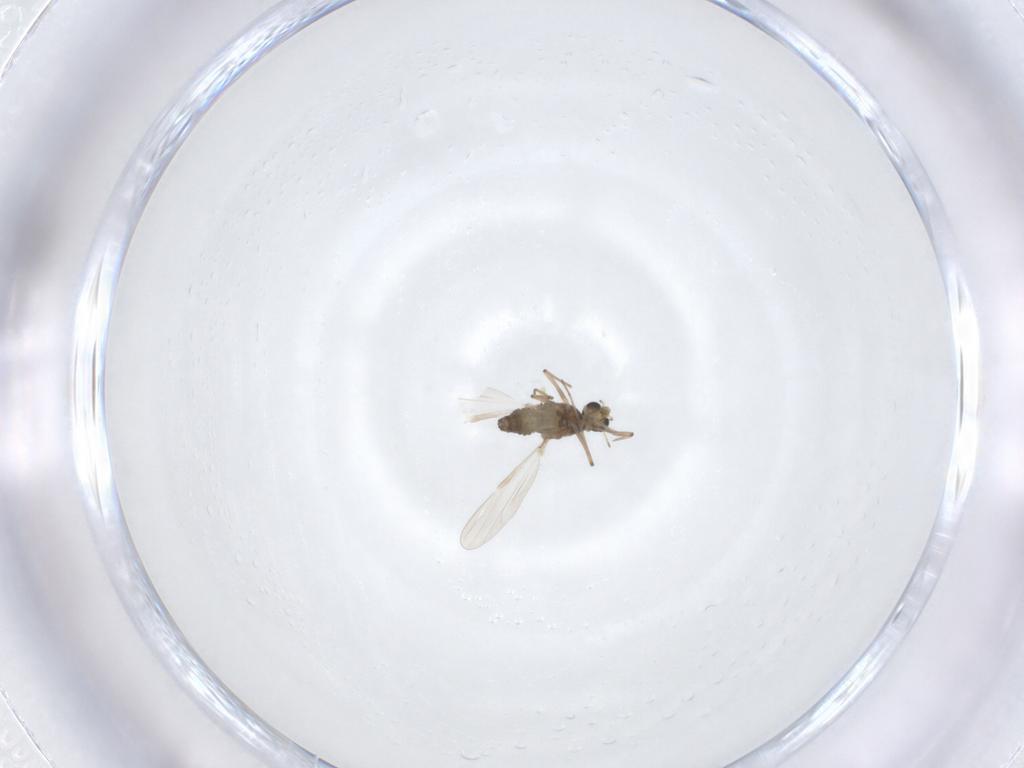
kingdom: Animalia
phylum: Arthropoda
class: Insecta
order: Diptera
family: Chironomidae
